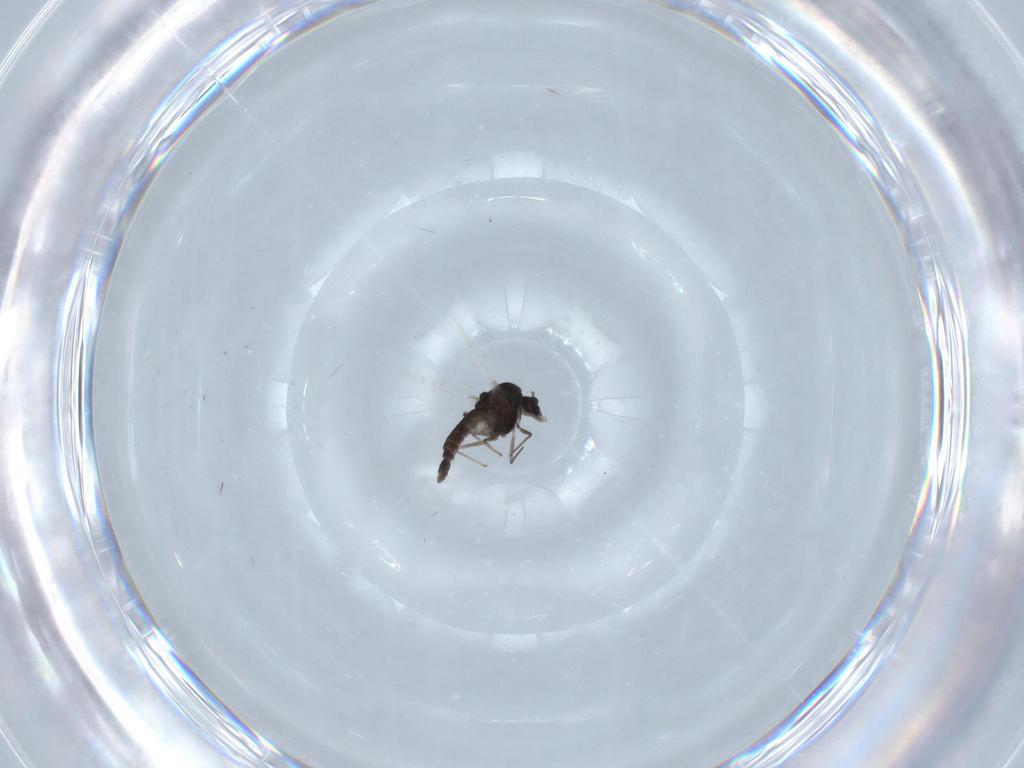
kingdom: Animalia
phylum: Arthropoda
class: Insecta
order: Diptera
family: Chironomidae
